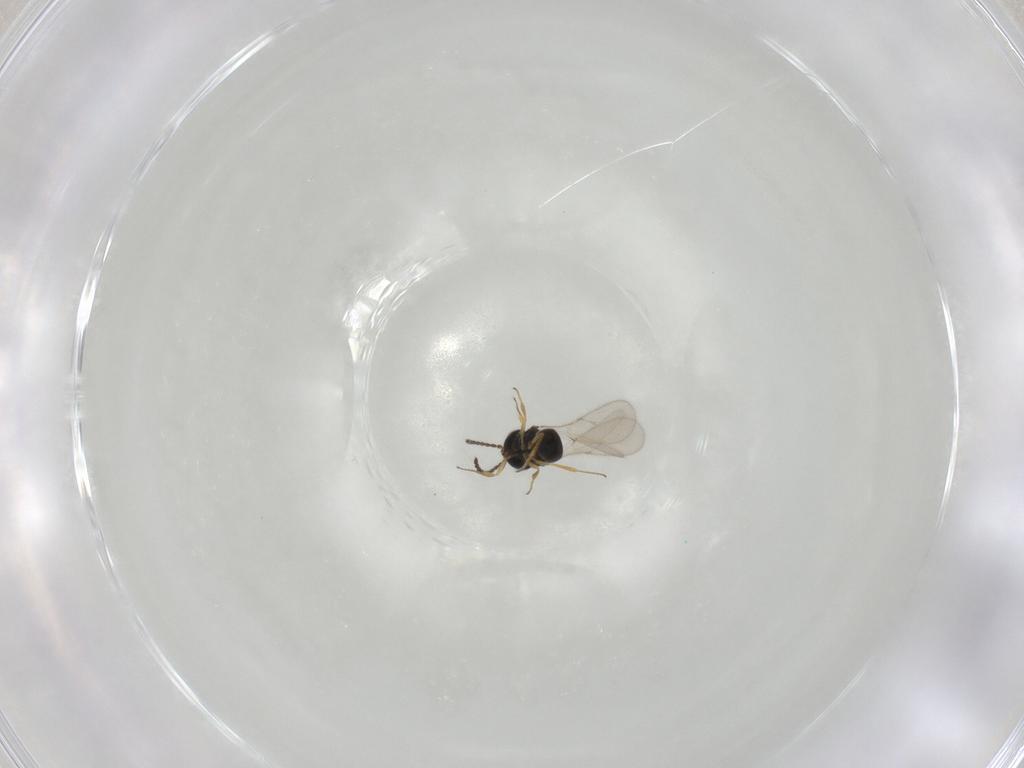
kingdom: Animalia
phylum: Arthropoda
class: Insecta
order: Hymenoptera
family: Scelionidae
